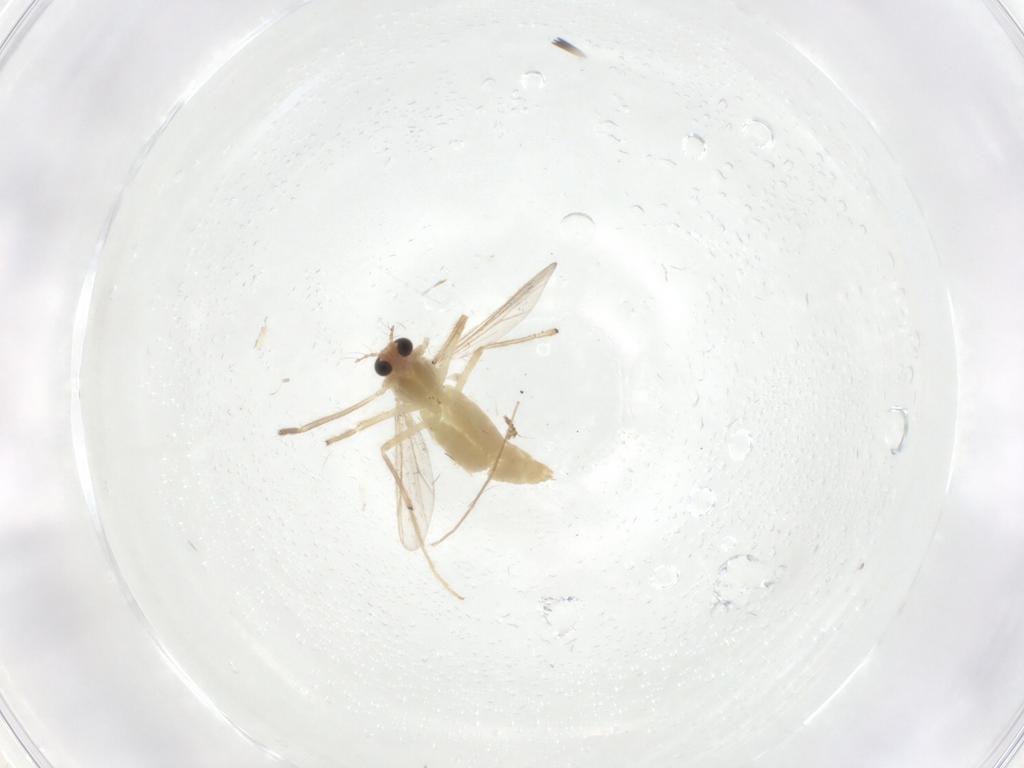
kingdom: Animalia
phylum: Arthropoda
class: Insecta
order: Diptera
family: Chironomidae
